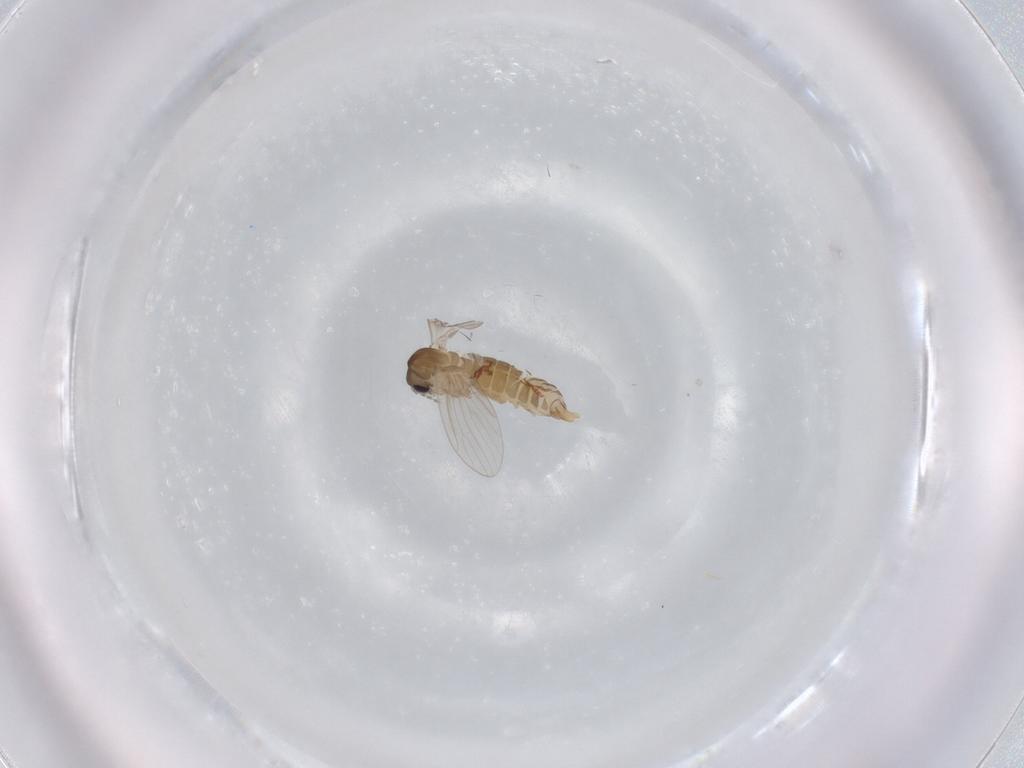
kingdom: Animalia
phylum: Arthropoda
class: Insecta
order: Diptera
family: Psychodidae
